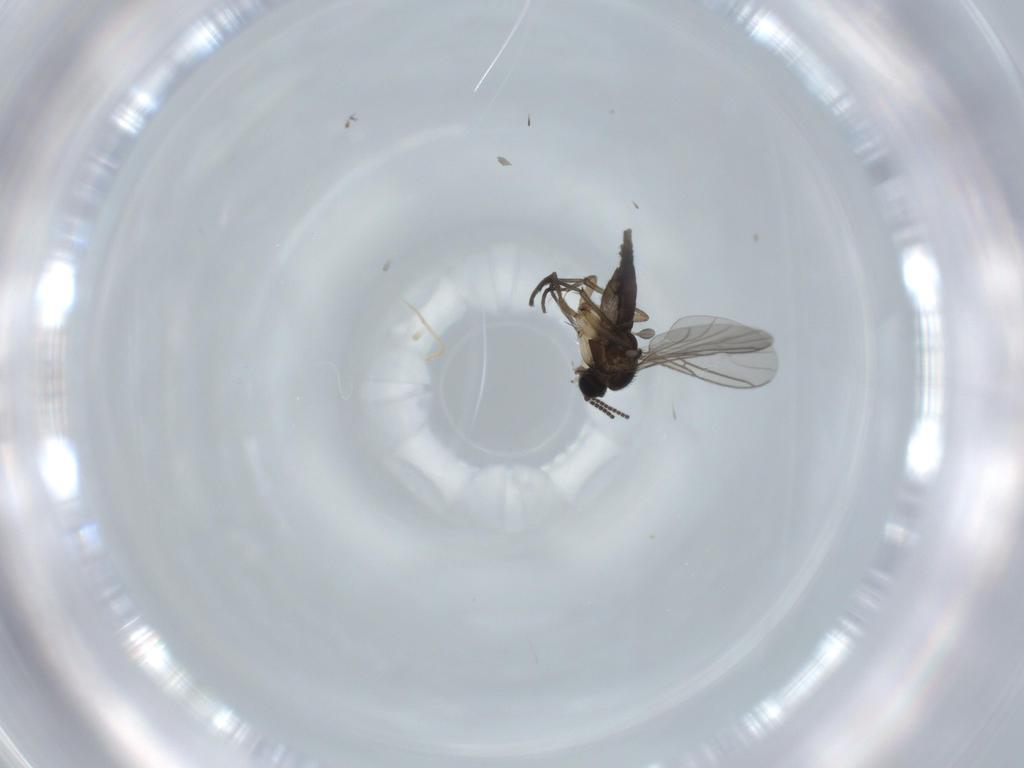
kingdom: Animalia
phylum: Arthropoda
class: Insecta
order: Diptera
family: Sciaridae
